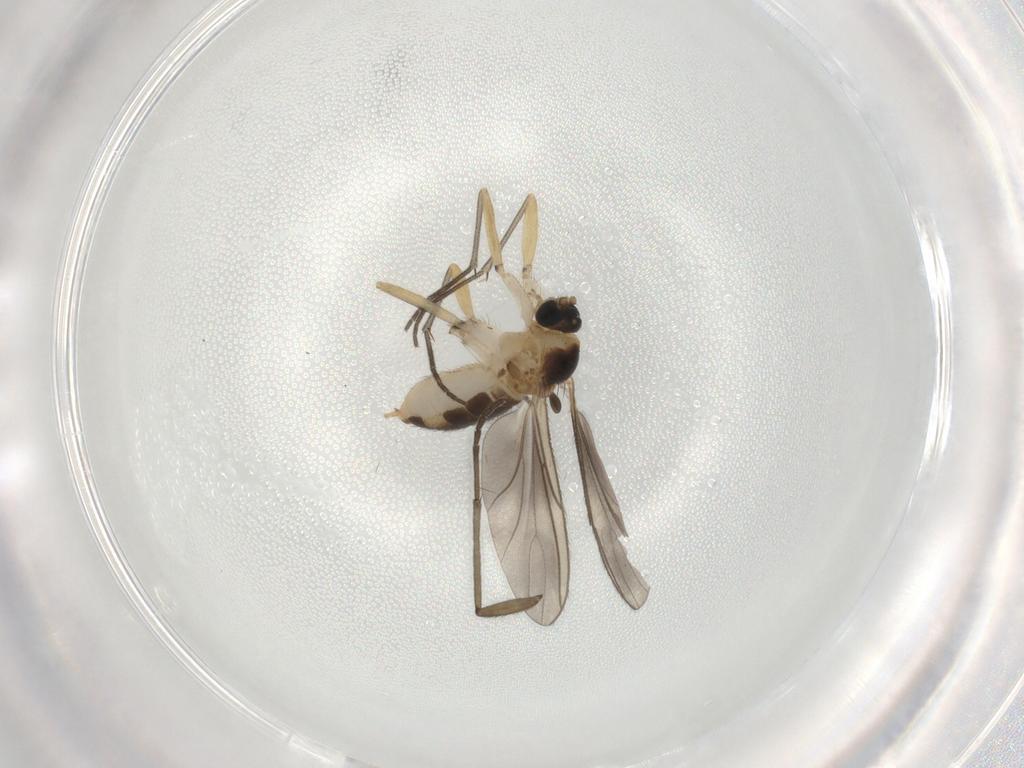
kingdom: Animalia
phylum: Arthropoda
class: Insecta
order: Diptera
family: Sciaridae
